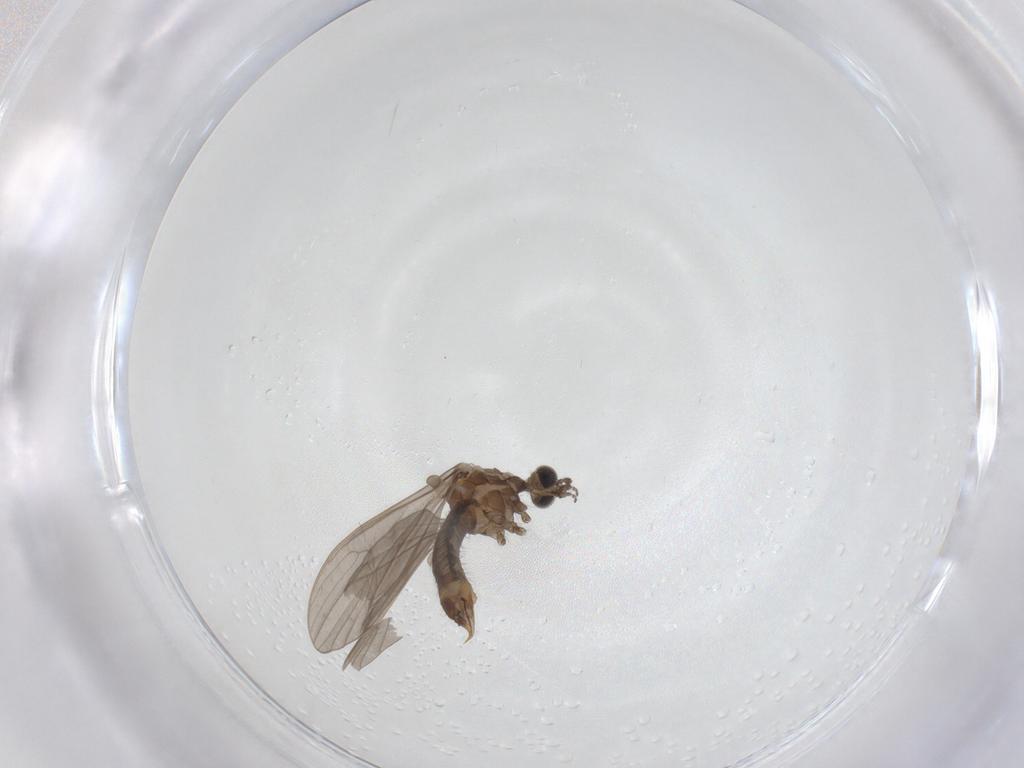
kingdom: Animalia
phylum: Arthropoda
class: Insecta
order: Diptera
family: Limoniidae
